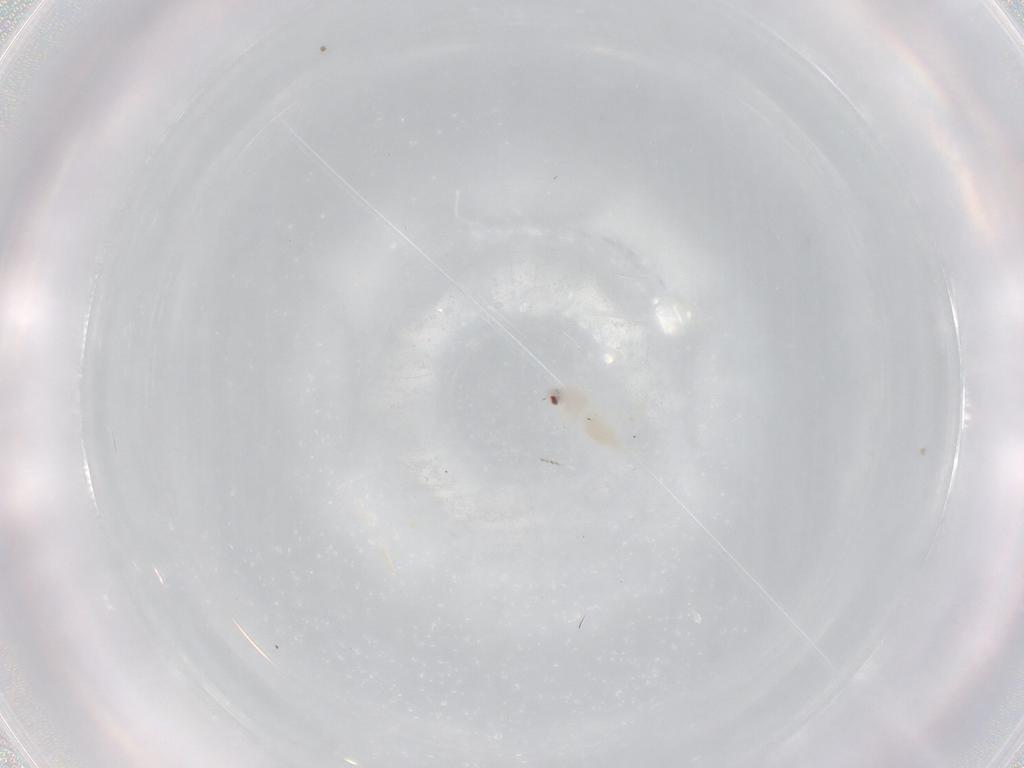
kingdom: Animalia
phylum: Arthropoda
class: Insecta
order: Hemiptera
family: Aleyrodidae
